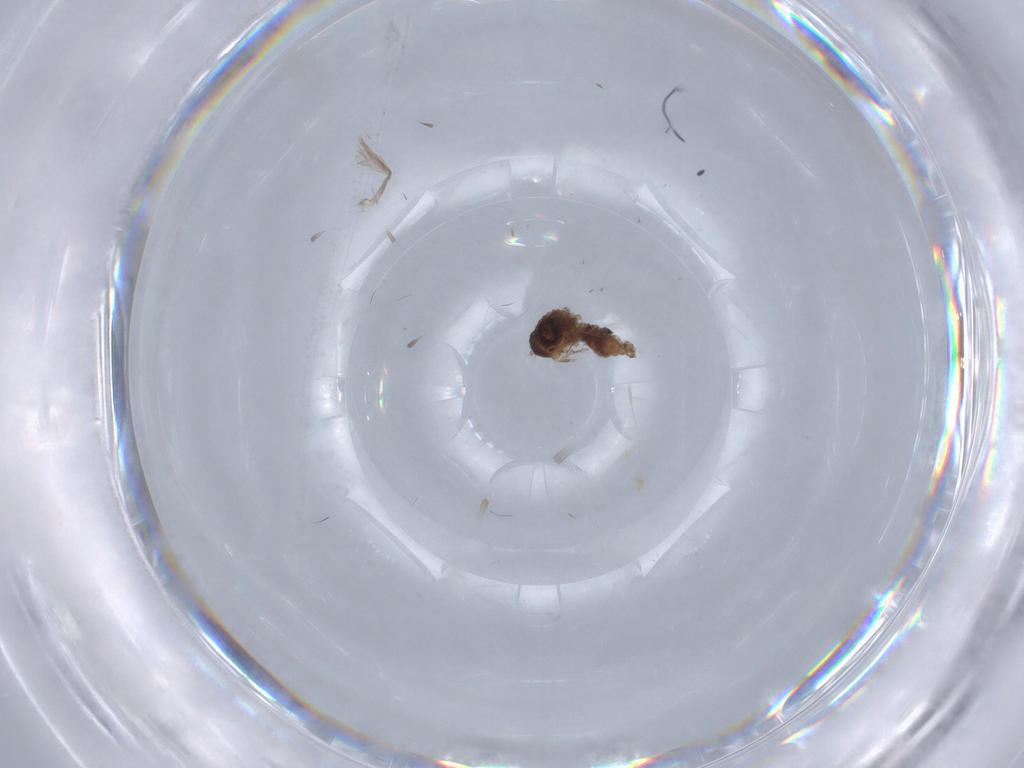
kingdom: Animalia
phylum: Arthropoda
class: Insecta
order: Diptera
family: Psychodidae
